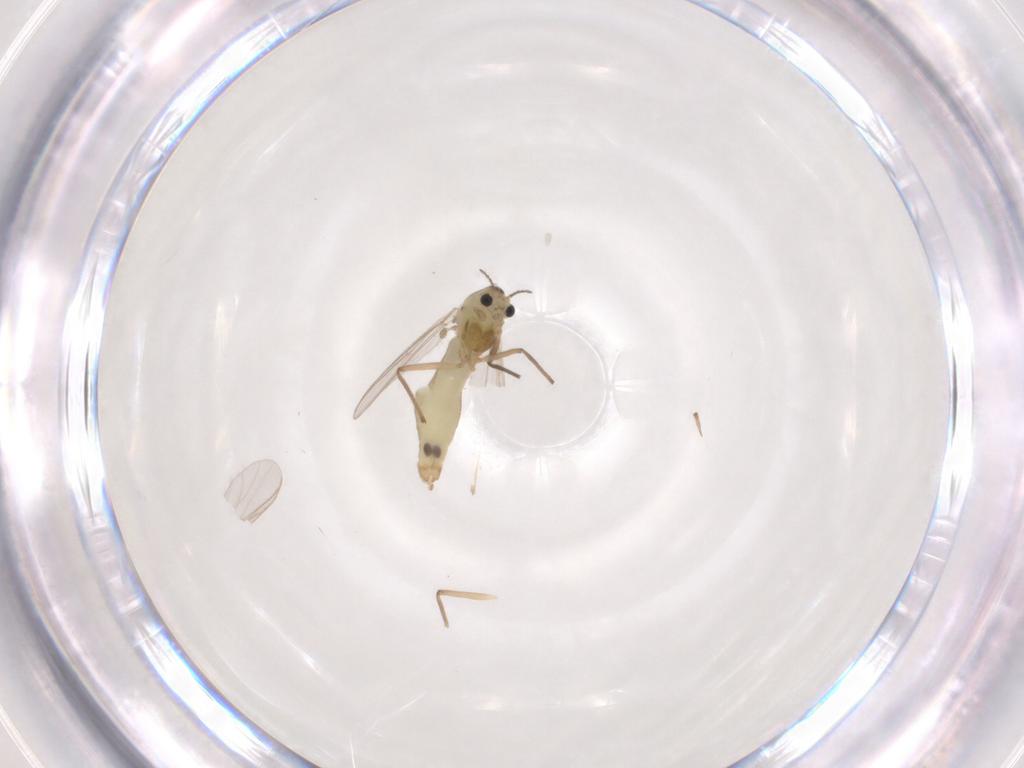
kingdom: Animalia
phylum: Arthropoda
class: Insecta
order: Diptera
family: Chironomidae
